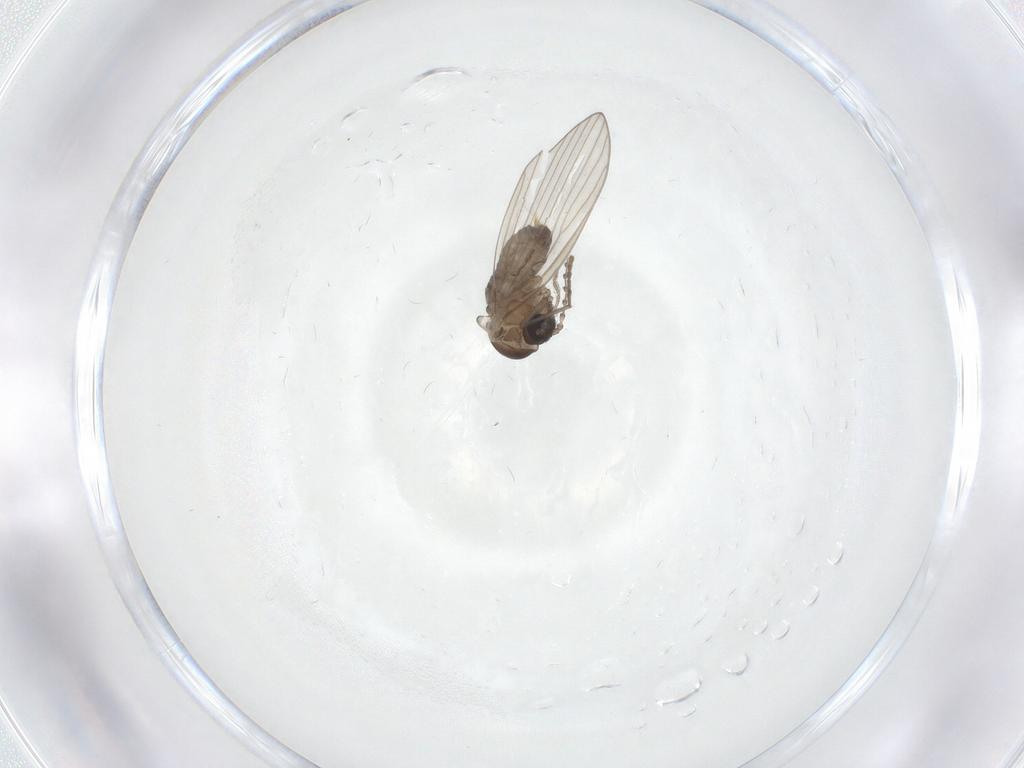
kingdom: Animalia
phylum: Arthropoda
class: Insecta
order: Diptera
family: Psychodidae
